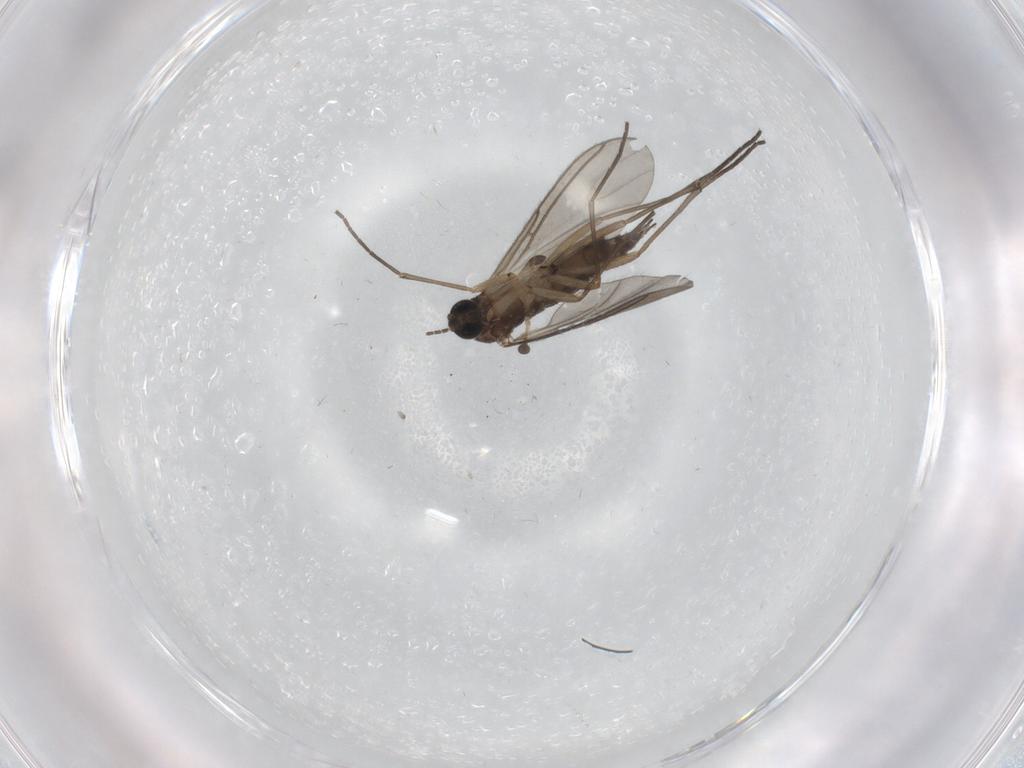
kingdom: Animalia
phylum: Arthropoda
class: Insecta
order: Diptera
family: Sciaridae
